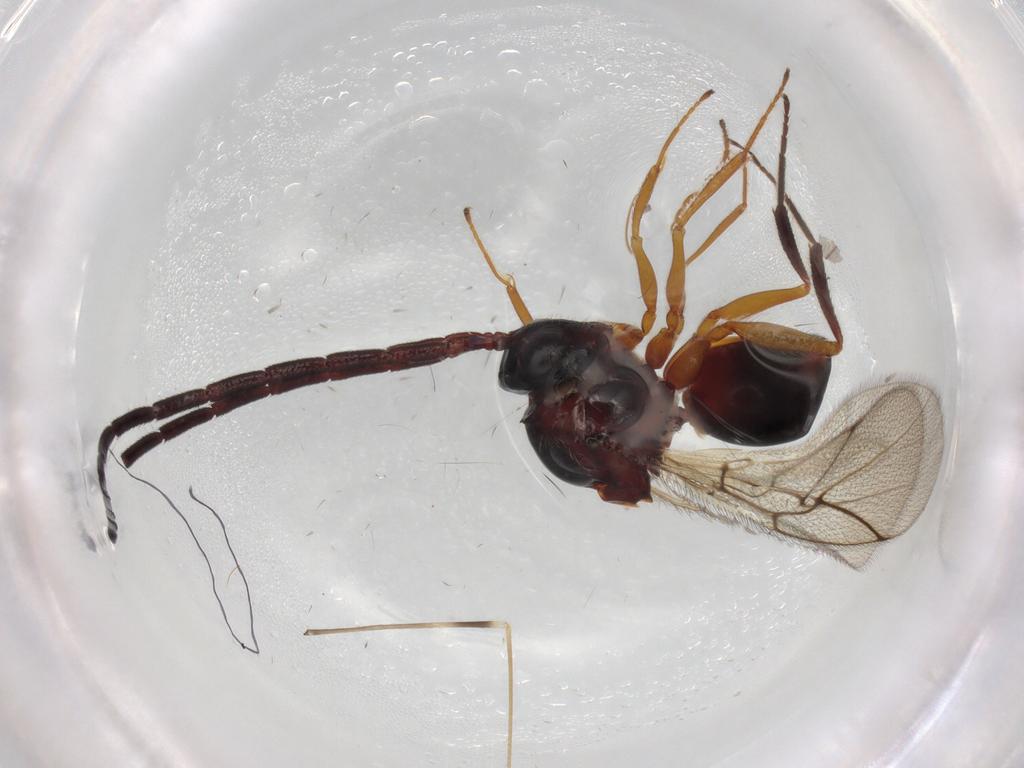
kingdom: Animalia
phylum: Arthropoda
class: Insecta
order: Hymenoptera
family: Figitidae
